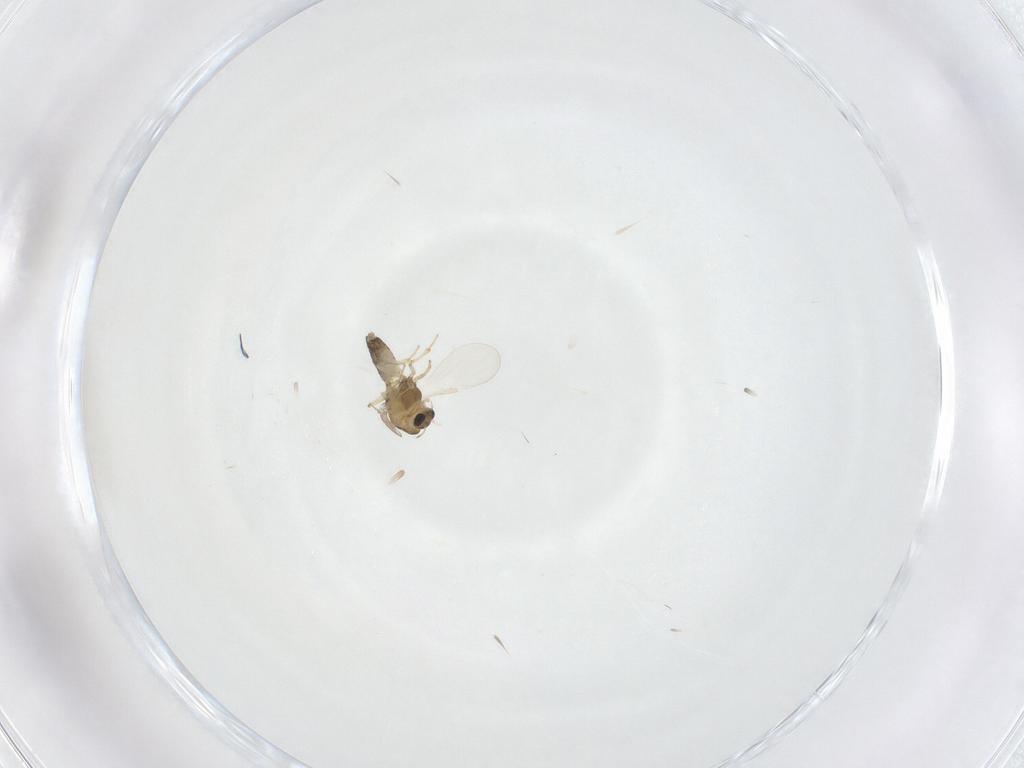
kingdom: Animalia
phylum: Arthropoda
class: Insecta
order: Diptera
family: Chironomidae
